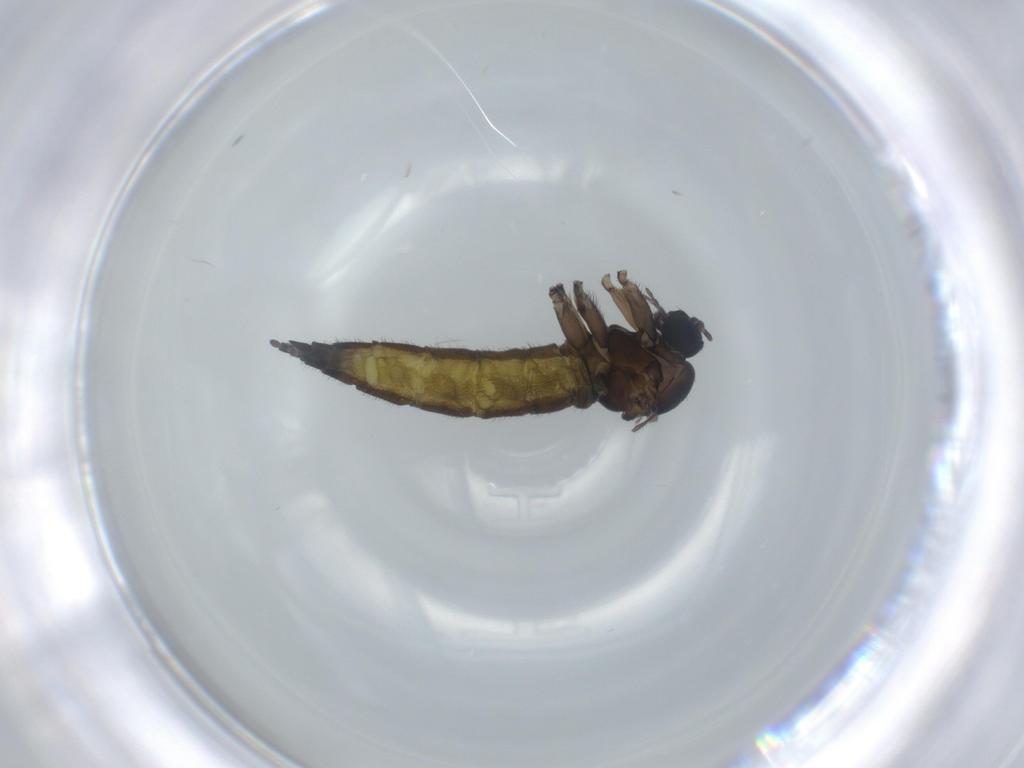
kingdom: Animalia
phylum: Arthropoda
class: Insecta
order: Diptera
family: Sciaridae
